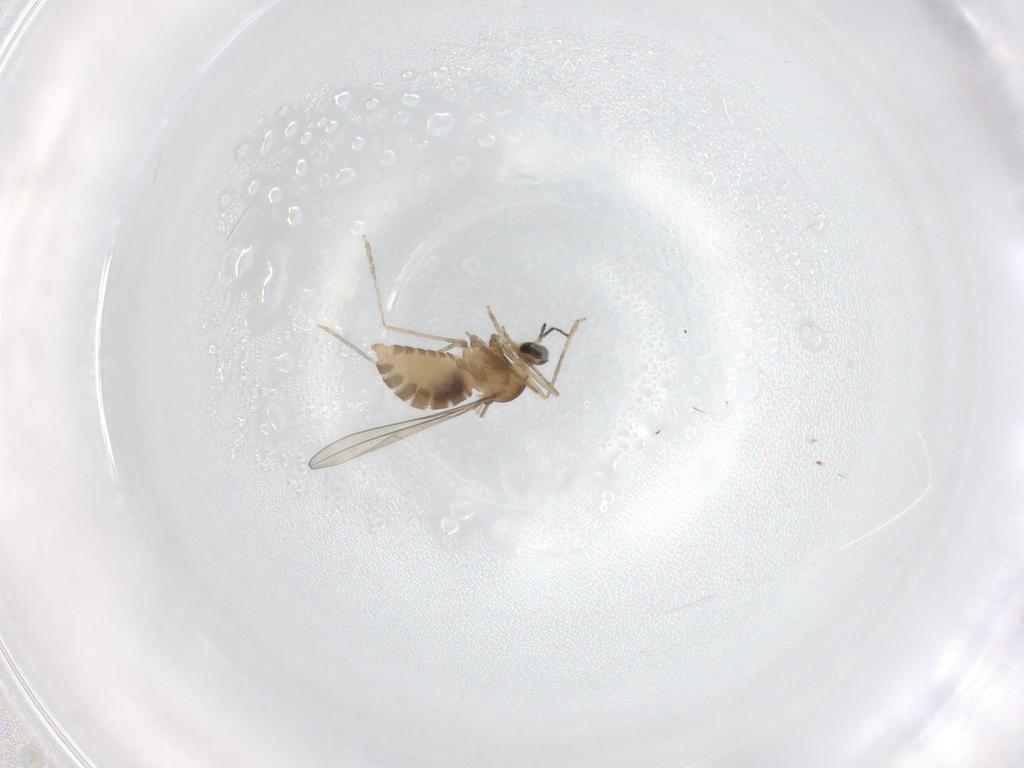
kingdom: Animalia
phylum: Arthropoda
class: Insecta
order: Diptera
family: Cecidomyiidae
